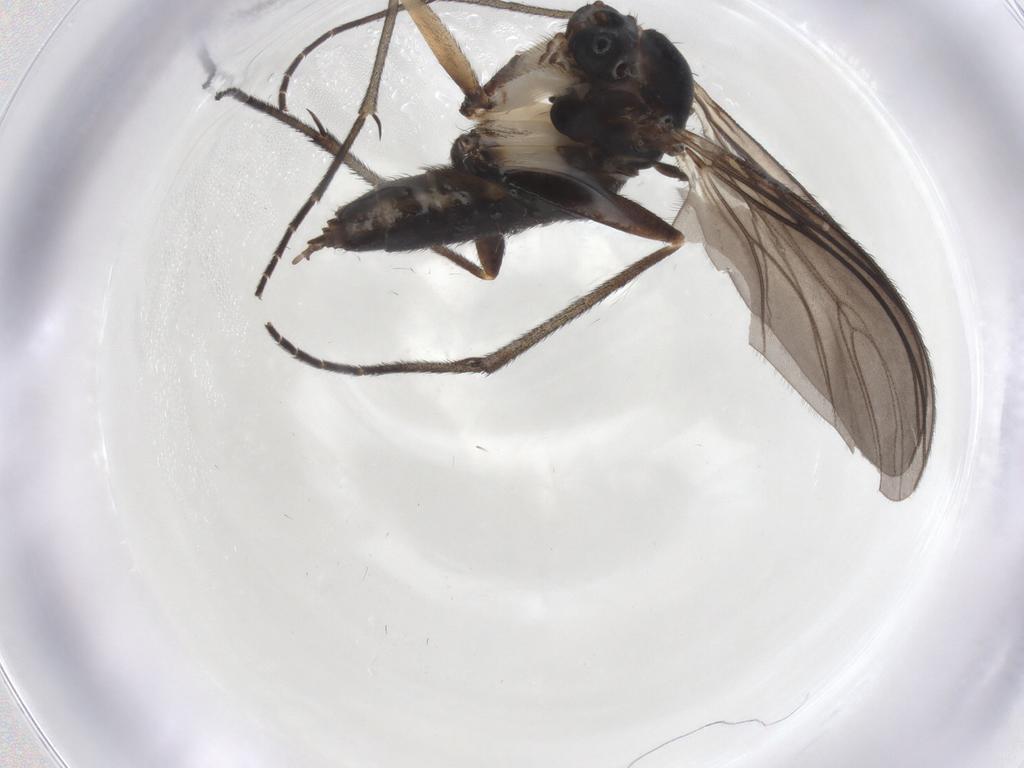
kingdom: Animalia
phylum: Arthropoda
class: Insecta
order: Diptera
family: Sciaridae
